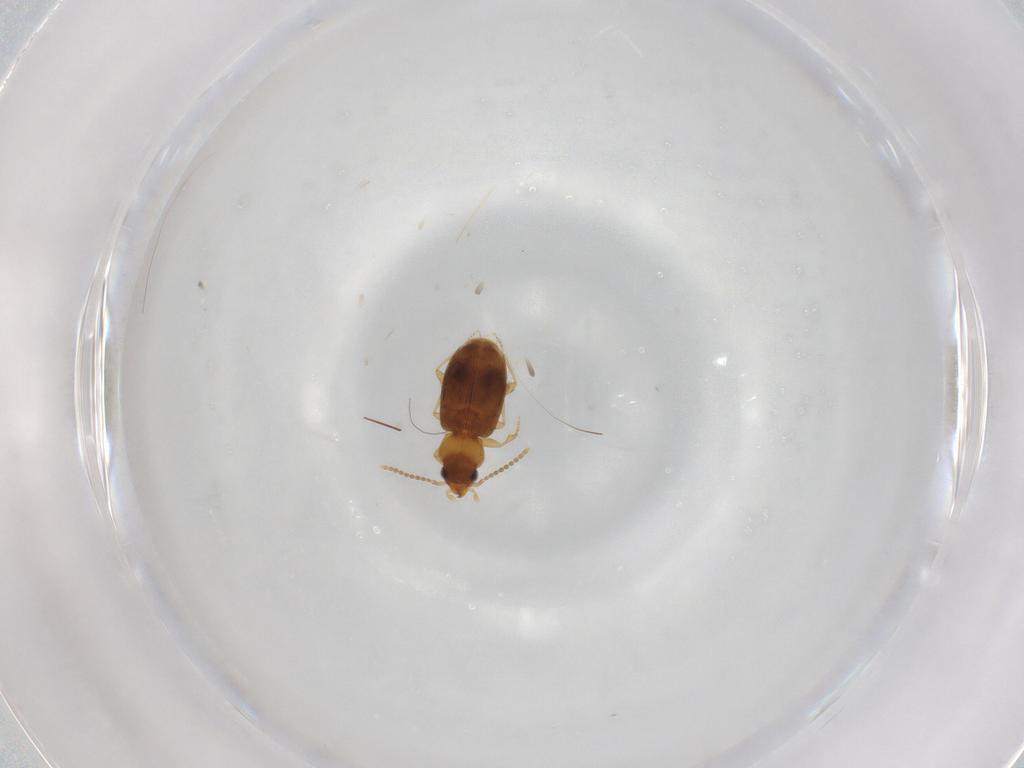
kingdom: Animalia
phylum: Arthropoda
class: Insecta
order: Coleoptera
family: Carabidae
